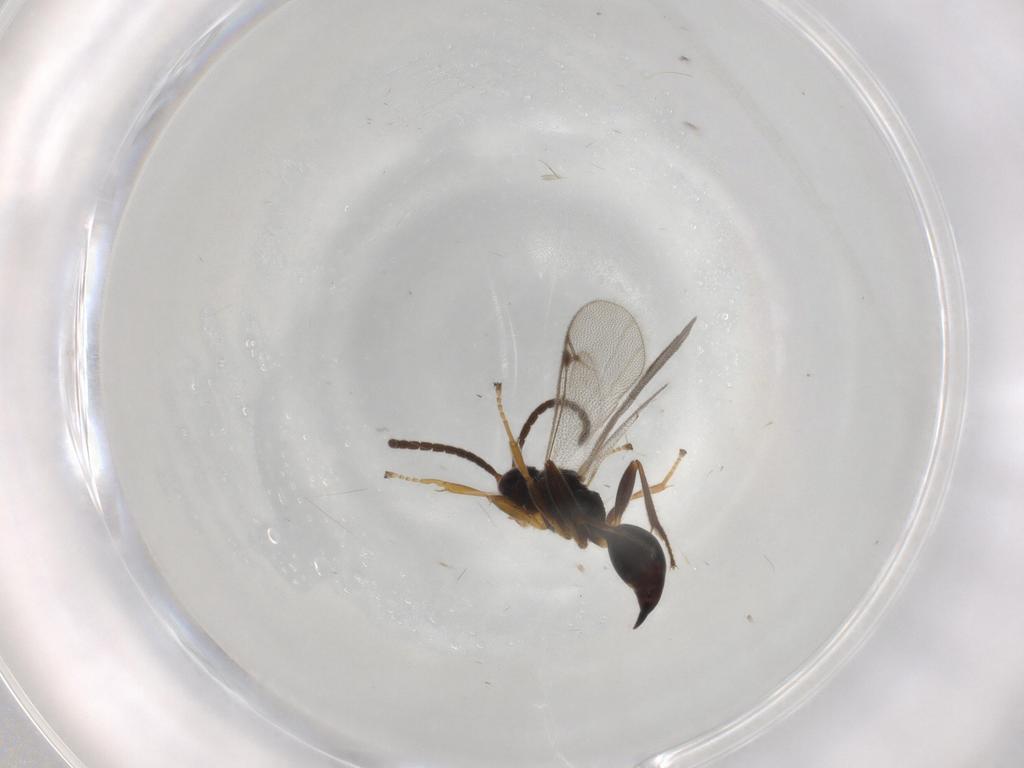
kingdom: Animalia
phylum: Arthropoda
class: Insecta
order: Hymenoptera
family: Proctotrupidae
